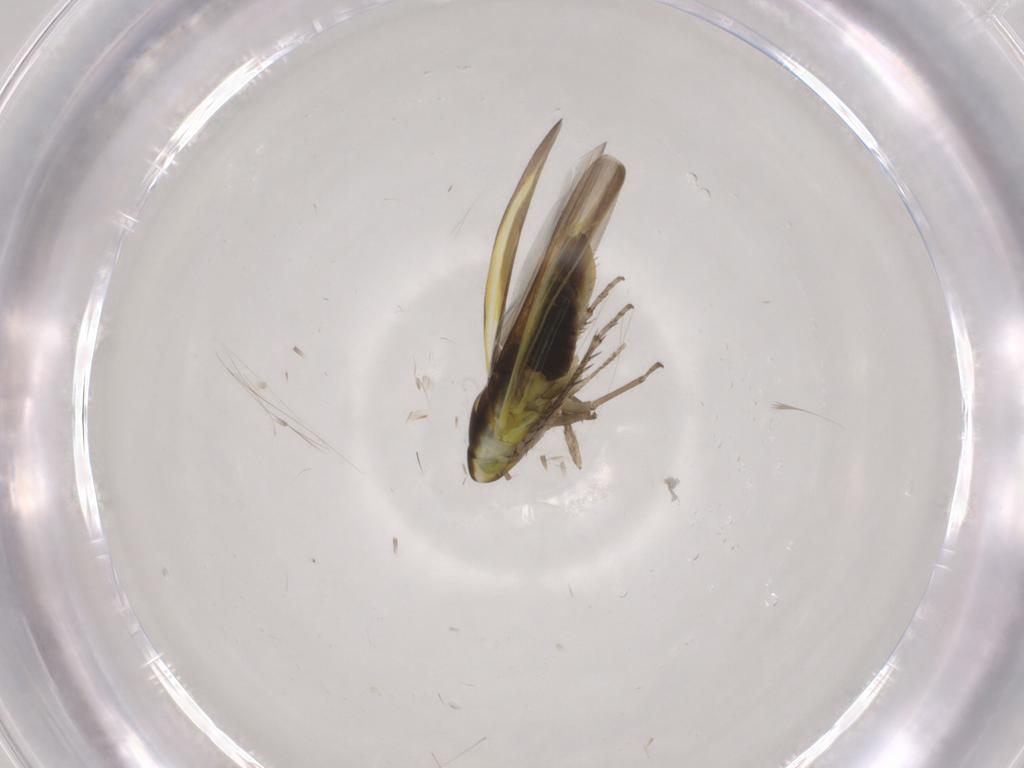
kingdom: Animalia
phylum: Arthropoda
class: Insecta
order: Hemiptera
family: Cicadellidae
